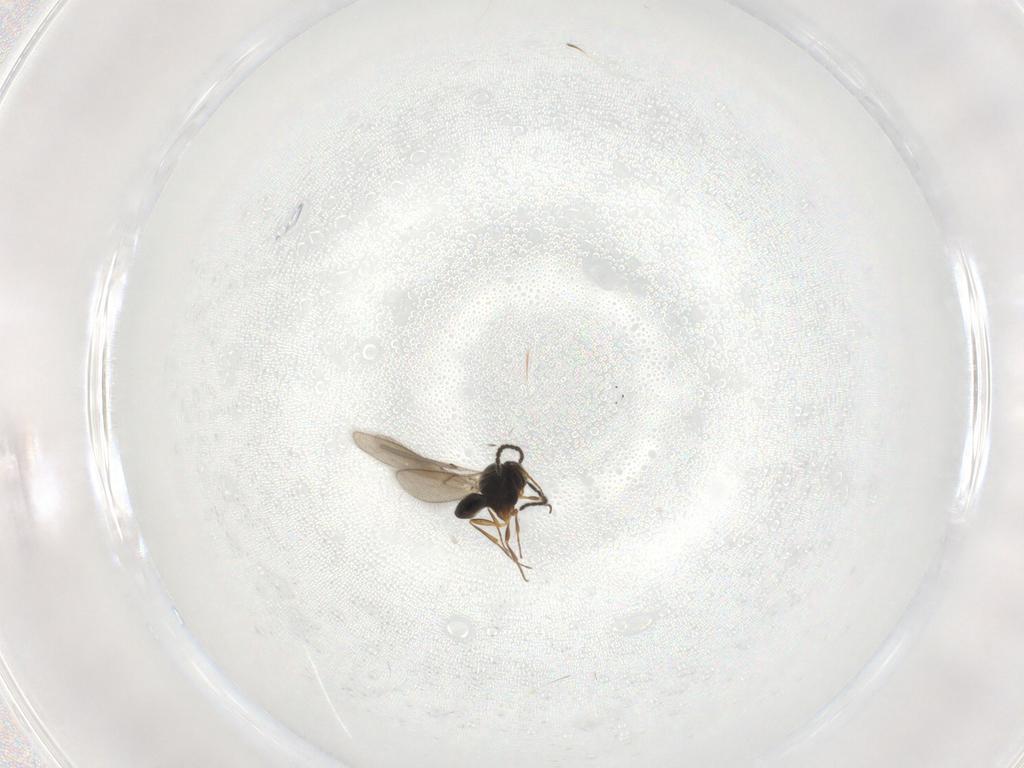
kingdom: Animalia
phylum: Arthropoda
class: Insecta
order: Hymenoptera
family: Scelionidae
